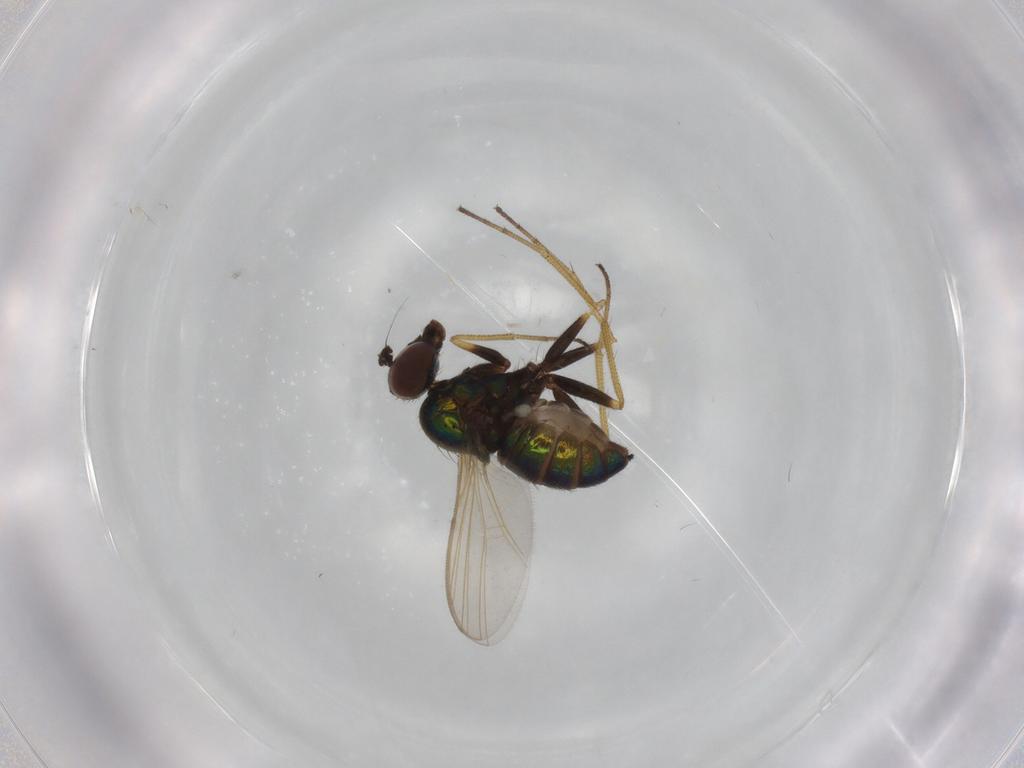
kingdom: Animalia
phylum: Arthropoda
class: Insecta
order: Diptera
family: Dolichopodidae
